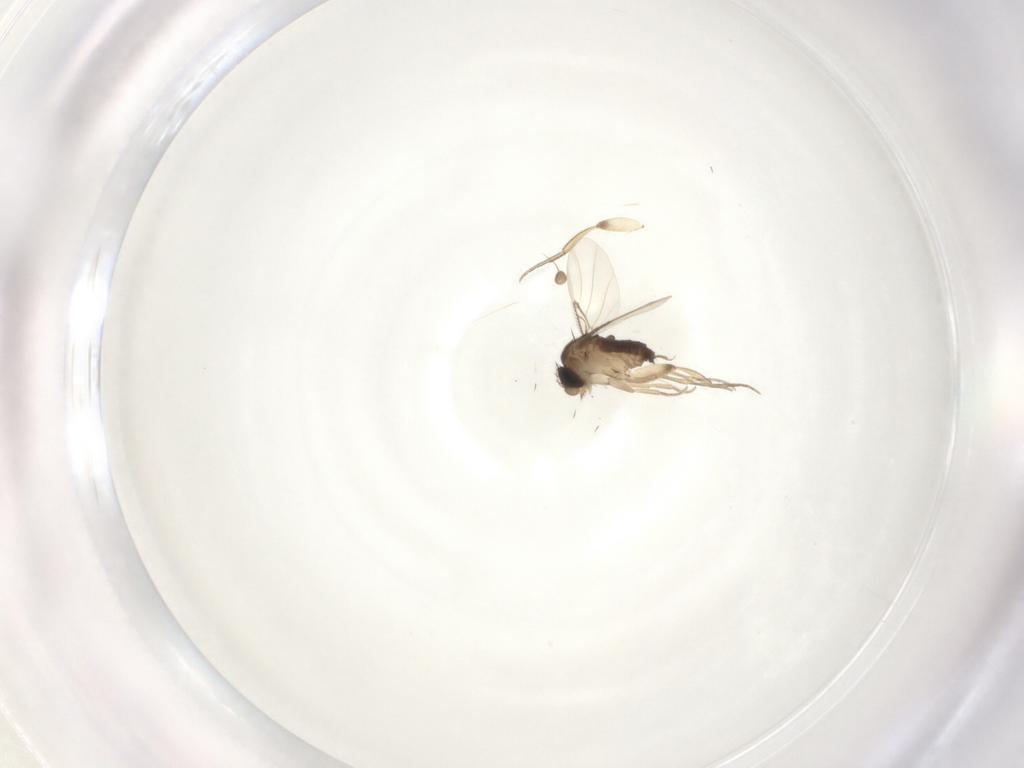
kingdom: Animalia
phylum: Arthropoda
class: Insecta
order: Diptera
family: Phoridae
